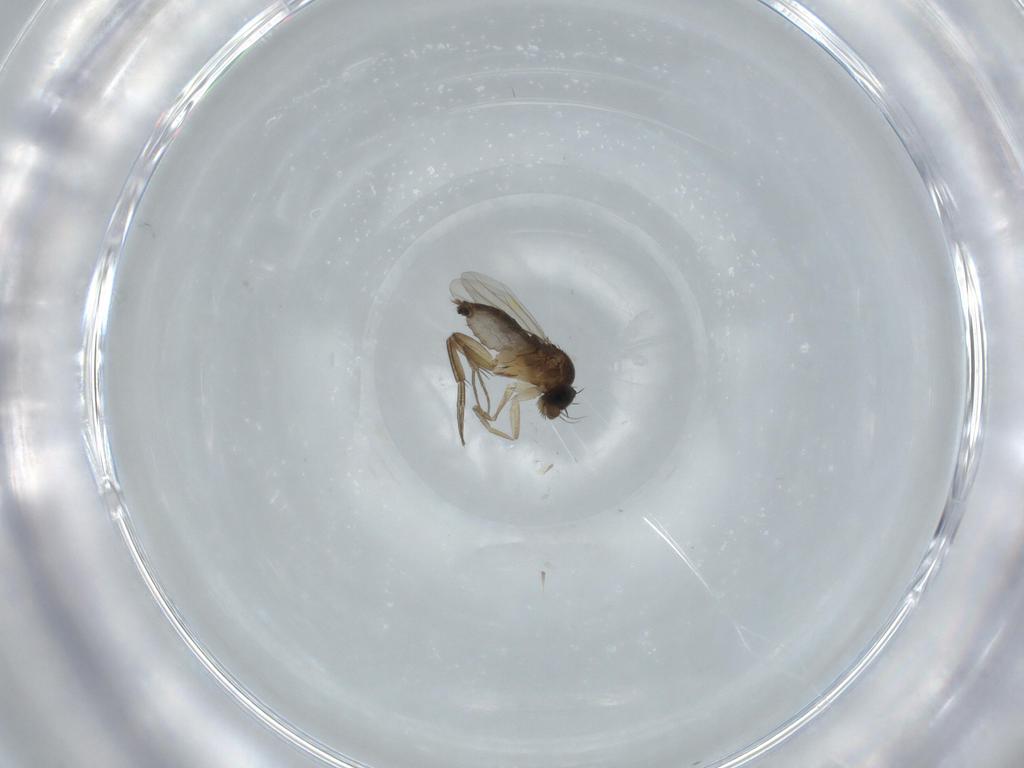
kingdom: Animalia
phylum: Arthropoda
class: Insecta
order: Diptera
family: Phoridae
